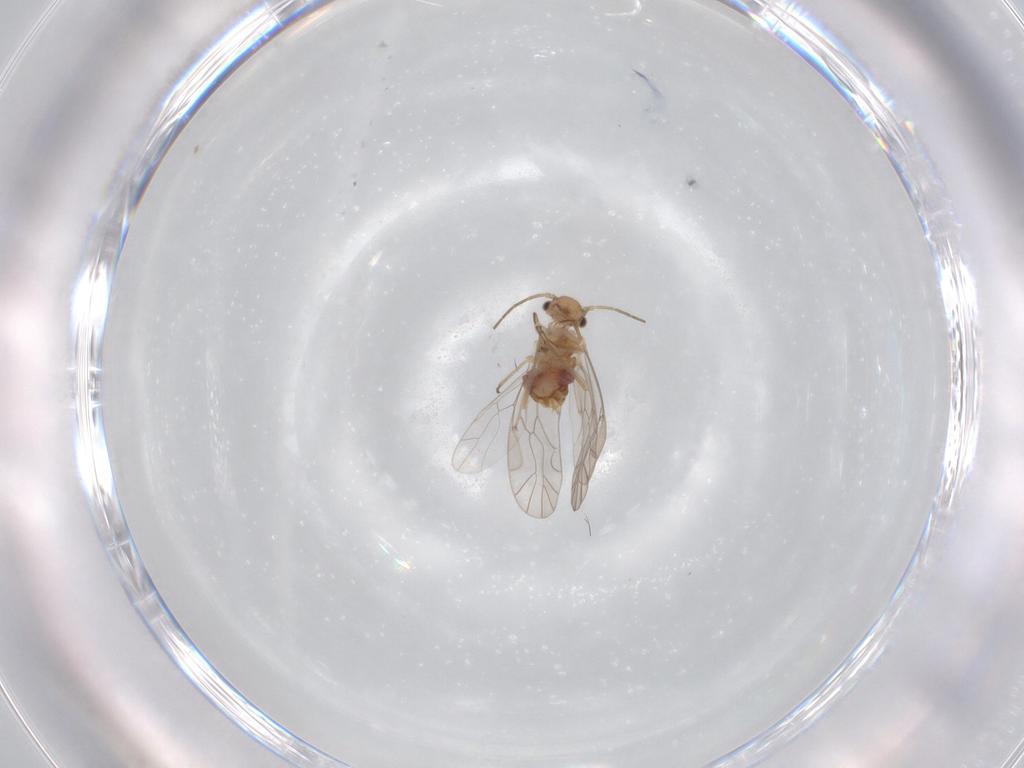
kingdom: Animalia
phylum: Arthropoda
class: Insecta
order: Psocodea
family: Lachesillidae
